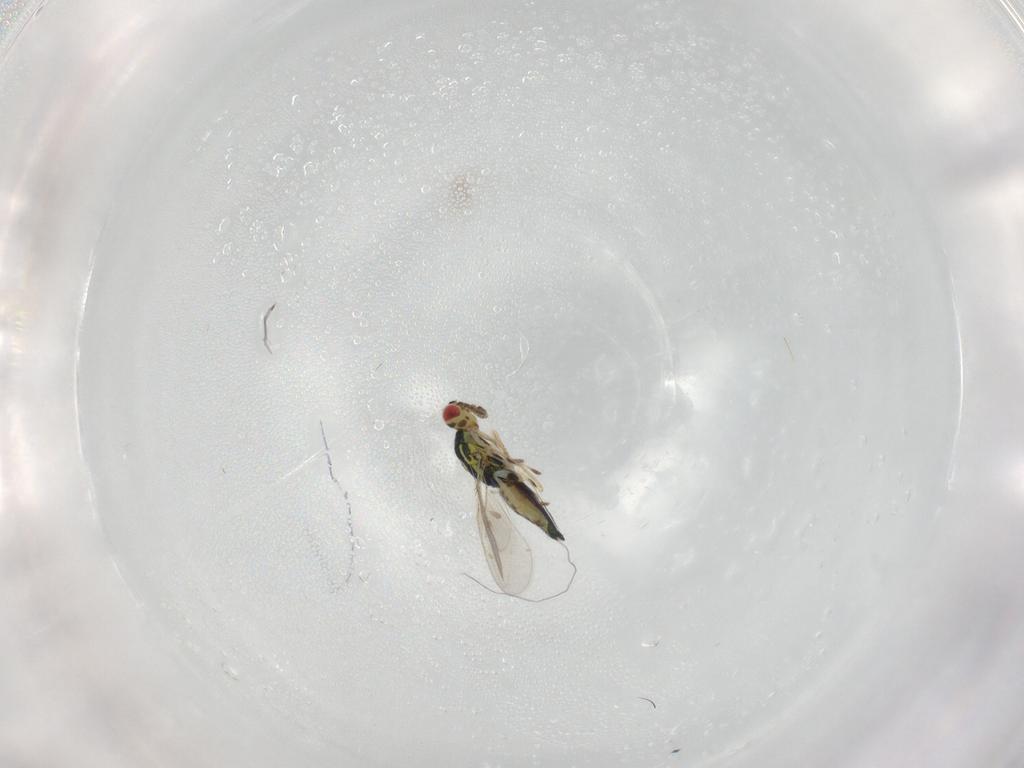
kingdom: Animalia
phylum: Arthropoda
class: Insecta
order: Hymenoptera
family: Eulophidae
